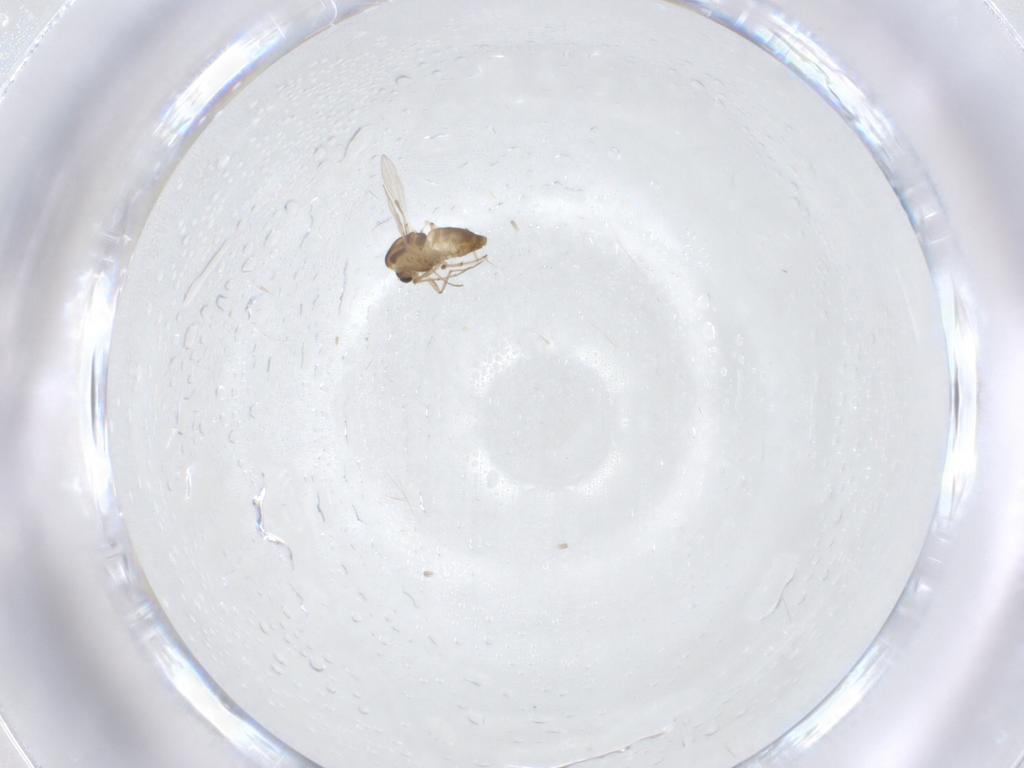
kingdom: Animalia
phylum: Arthropoda
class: Insecta
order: Diptera
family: Chironomidae
